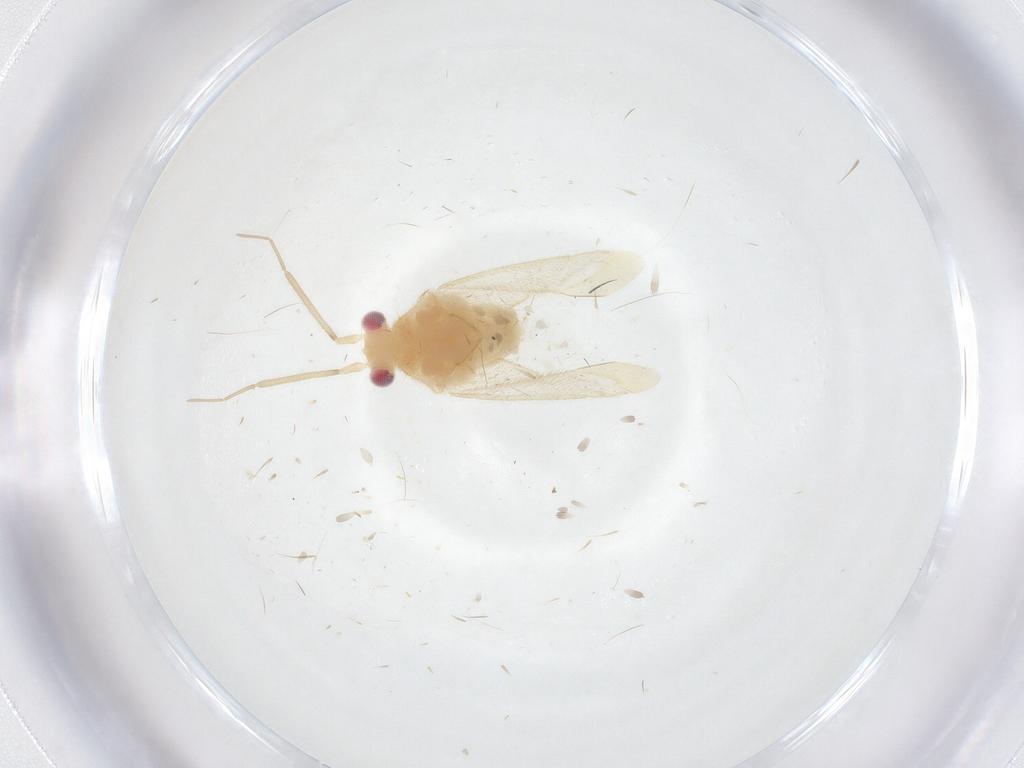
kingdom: Animalia
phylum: Arthropoda
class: Insecta
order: Hemiptera
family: Miridae
